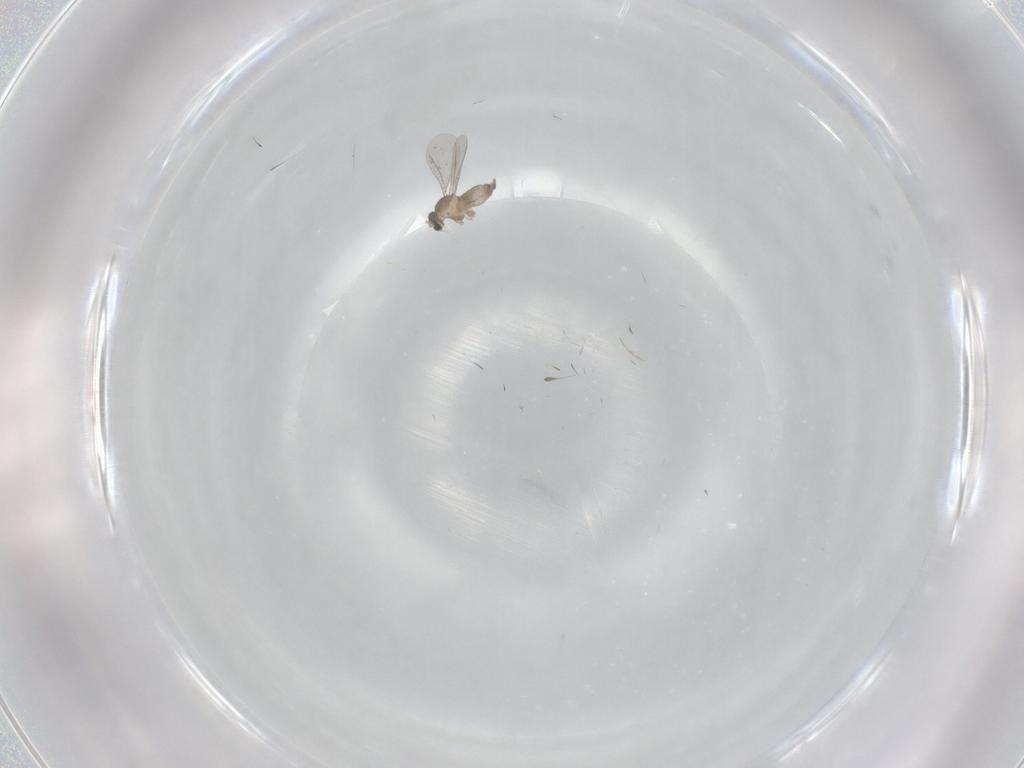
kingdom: Animalia
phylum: Arthropoda
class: Insecta
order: Diptera
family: Cecidomyiidae
